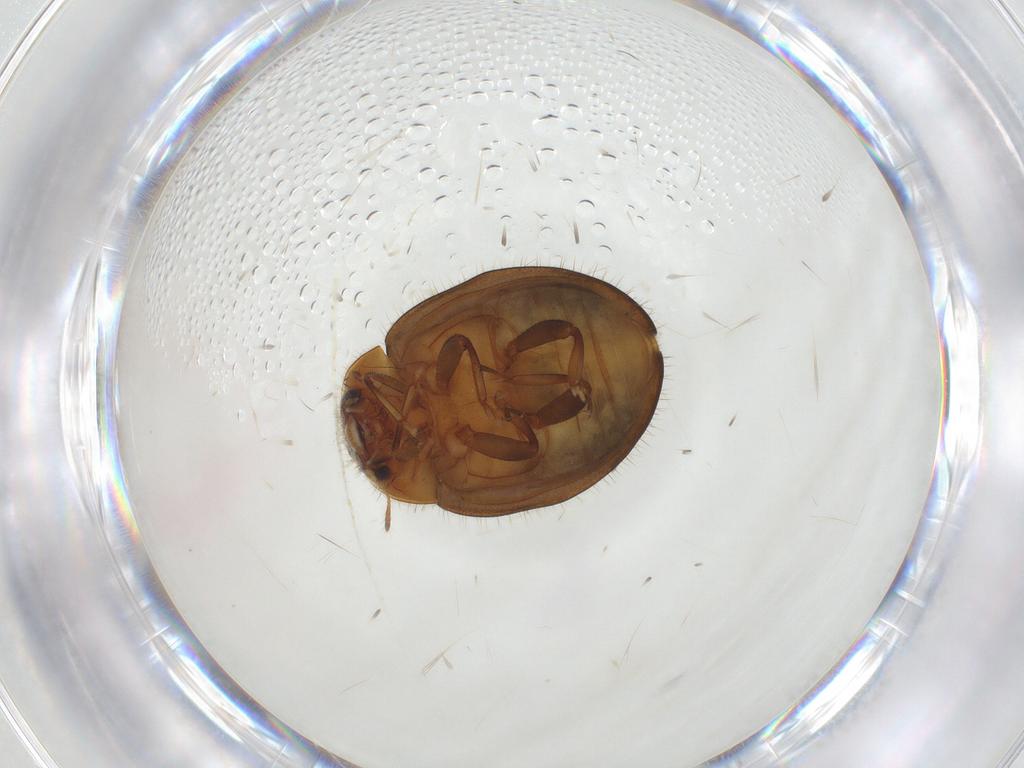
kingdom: Animalia
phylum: Arthropoda
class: Insecta
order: Coleoptera
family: Coccinellidae
